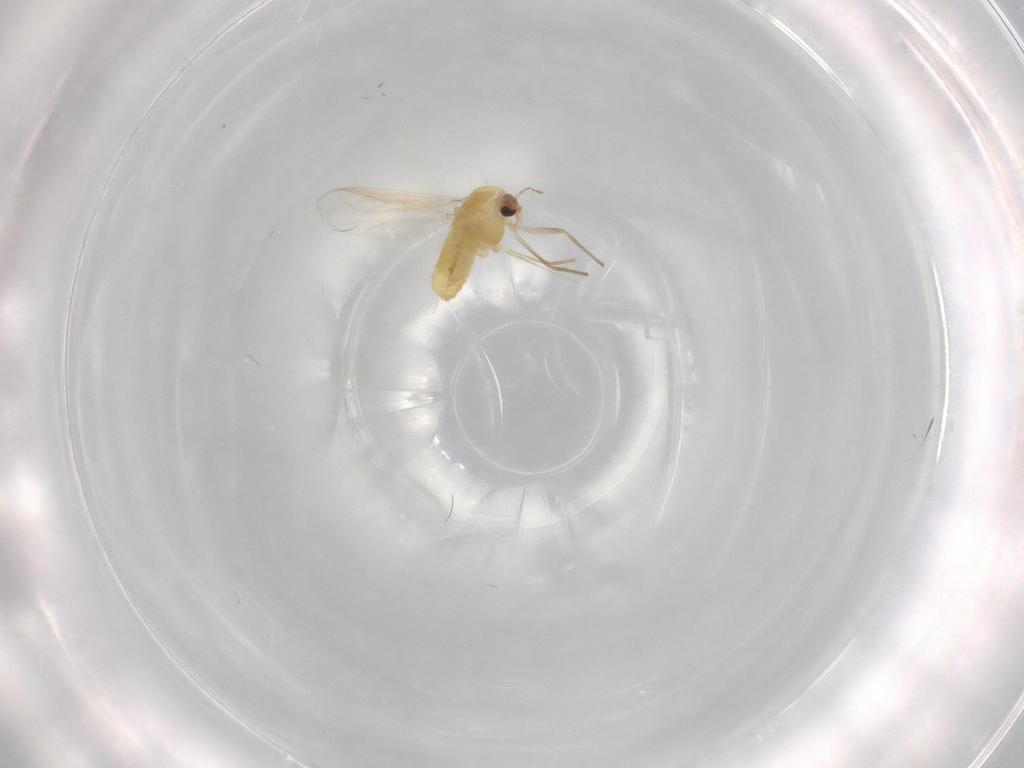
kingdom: Animalia
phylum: Arthropoda
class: Insecta
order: Diptera
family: Chironomidae
